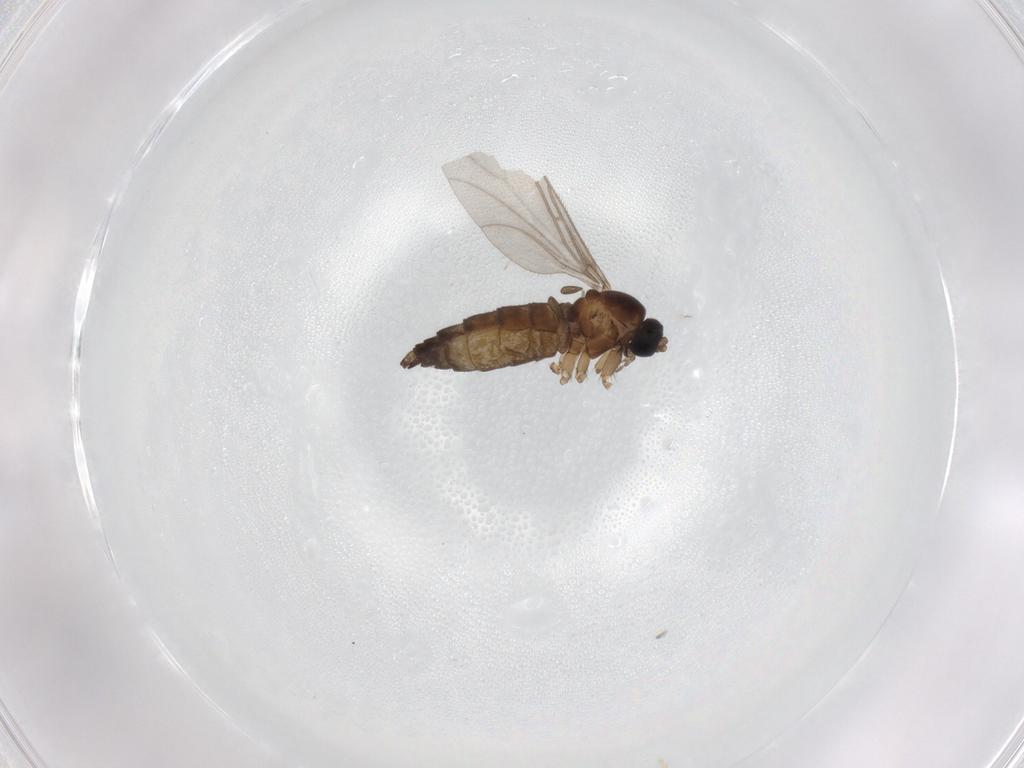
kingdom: Animalia
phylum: Arthropoda
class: Insecta
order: Diptera
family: Sciaridae
